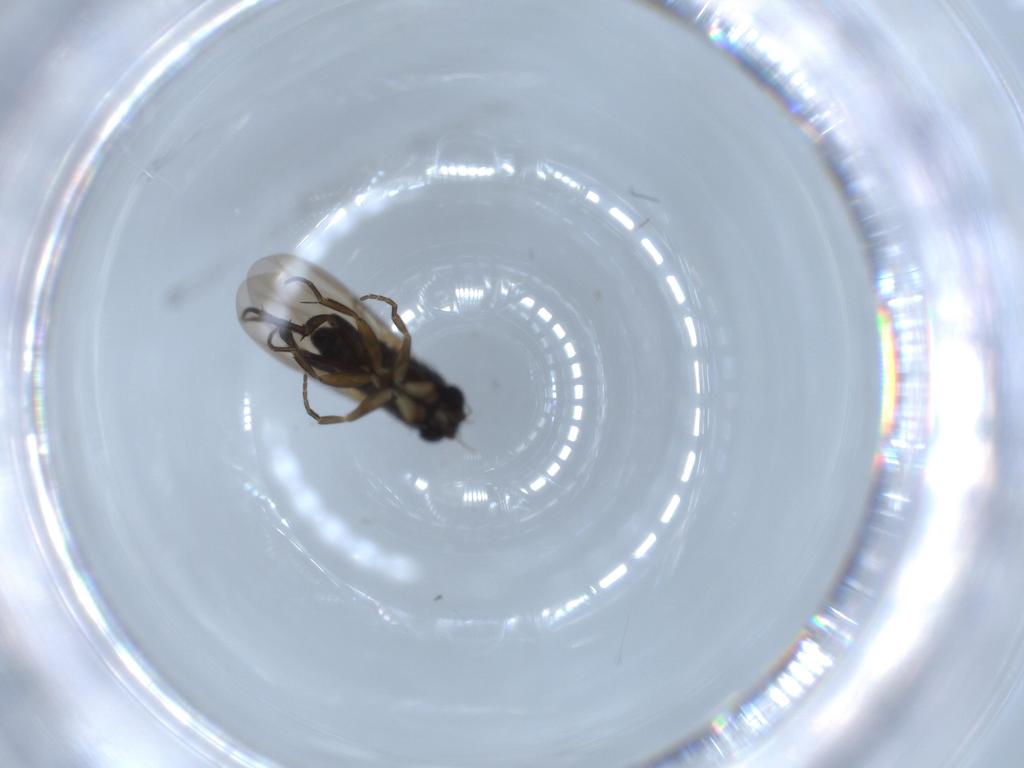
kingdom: Animalia
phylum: Arthropoda
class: Insecta
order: Diptera
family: Phoridae
